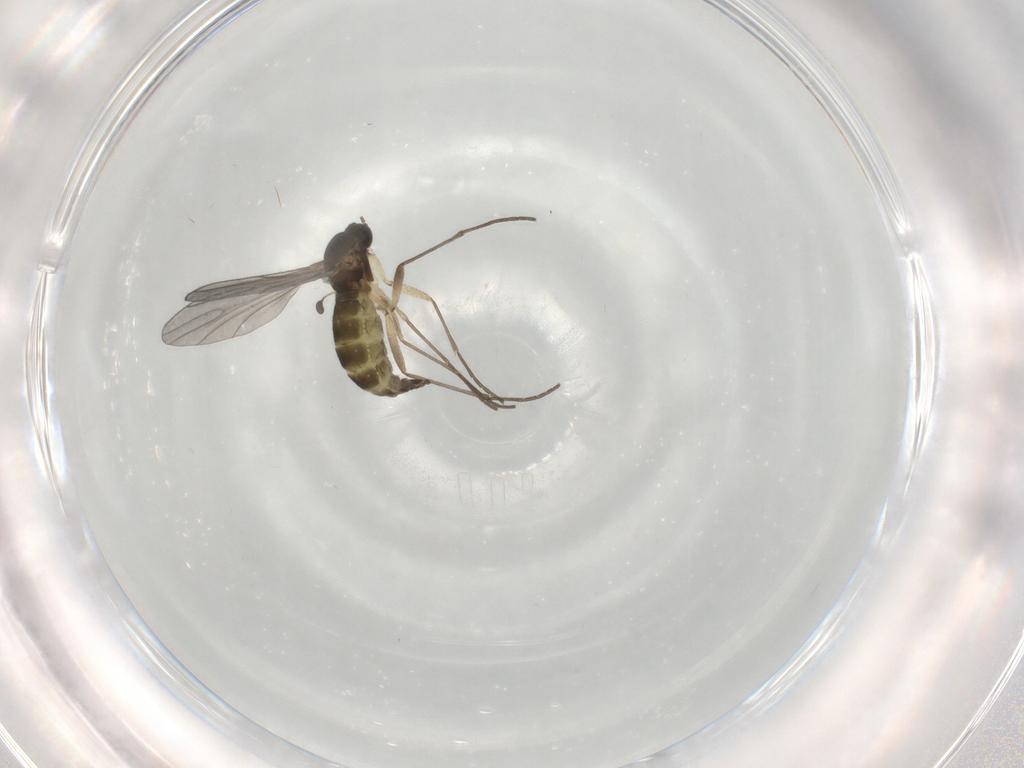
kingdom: Animalia
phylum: Arthropoda
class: Insecta
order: Diptera
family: Sciaridae
